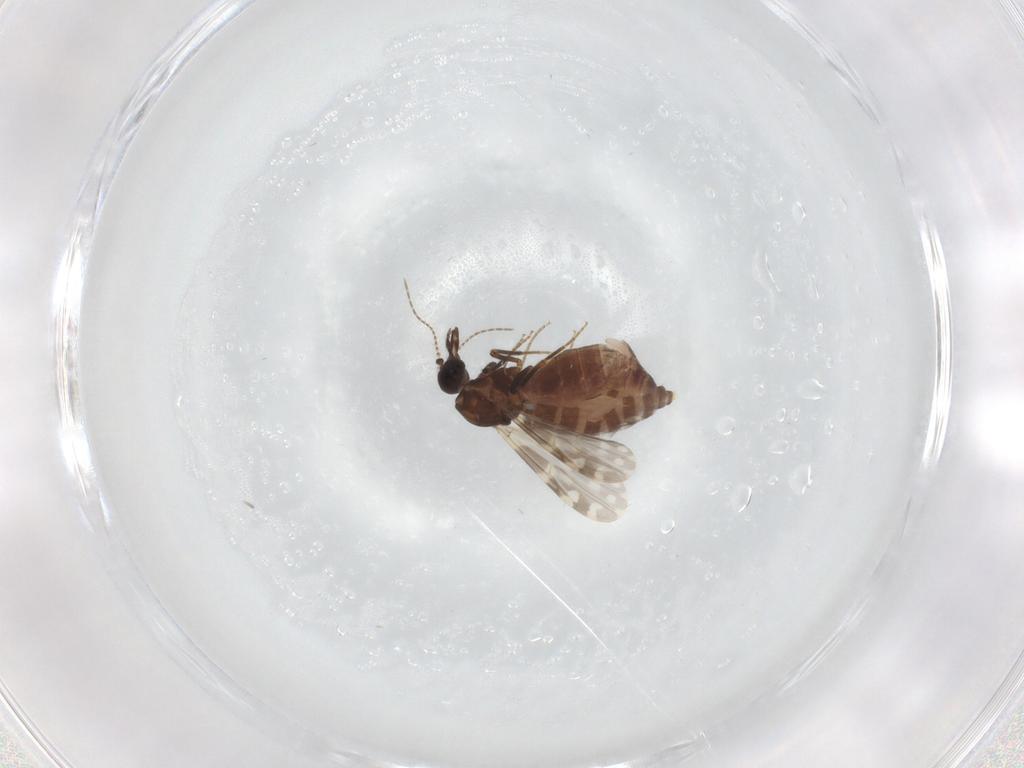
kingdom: Animalia
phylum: Arthropoda
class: Insecta
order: Diptera
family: Ceratopogonidae
